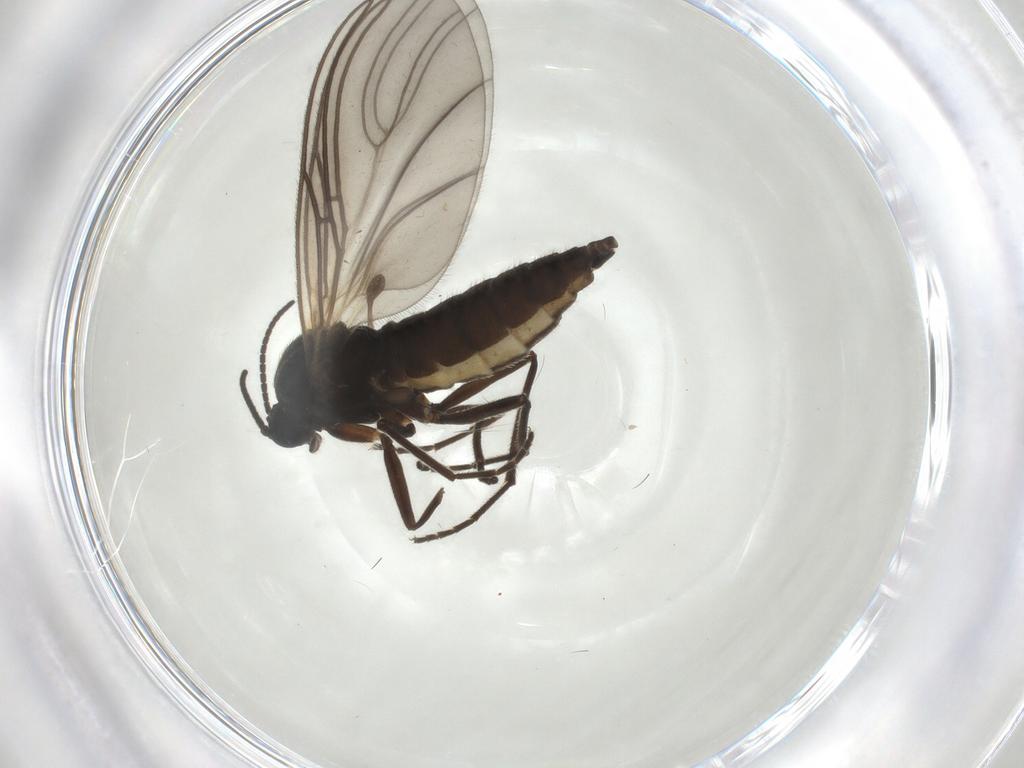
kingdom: Animalia
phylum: Arthropoda
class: Insecta
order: Diptera
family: Sciaridae
